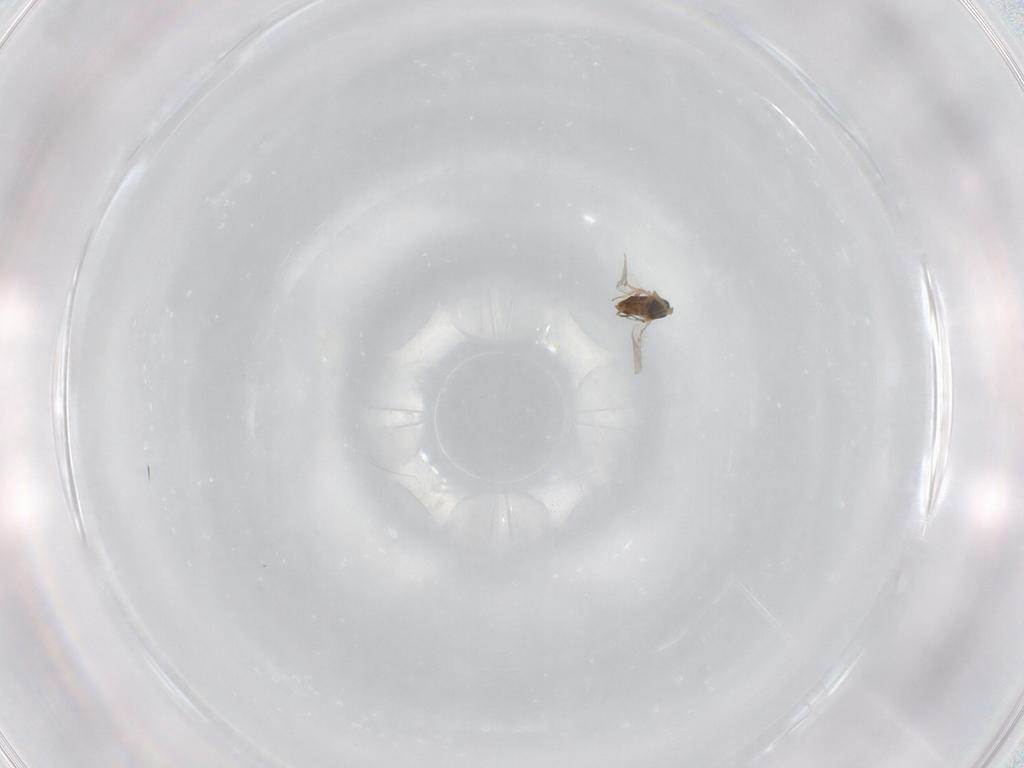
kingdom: Animalia
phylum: Arthropoda
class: Insecta
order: Hymenoptera
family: Encyrtidae
